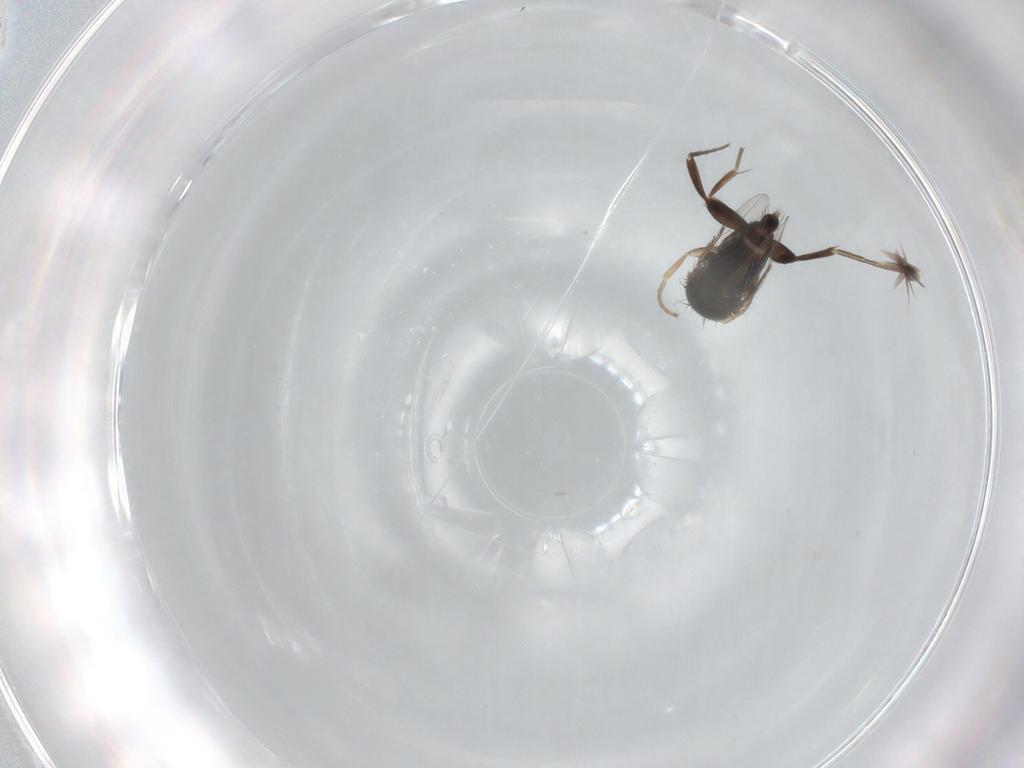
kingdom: Animalia
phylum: Arthropoda
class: Insecta
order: Diptera
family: Phoridae
